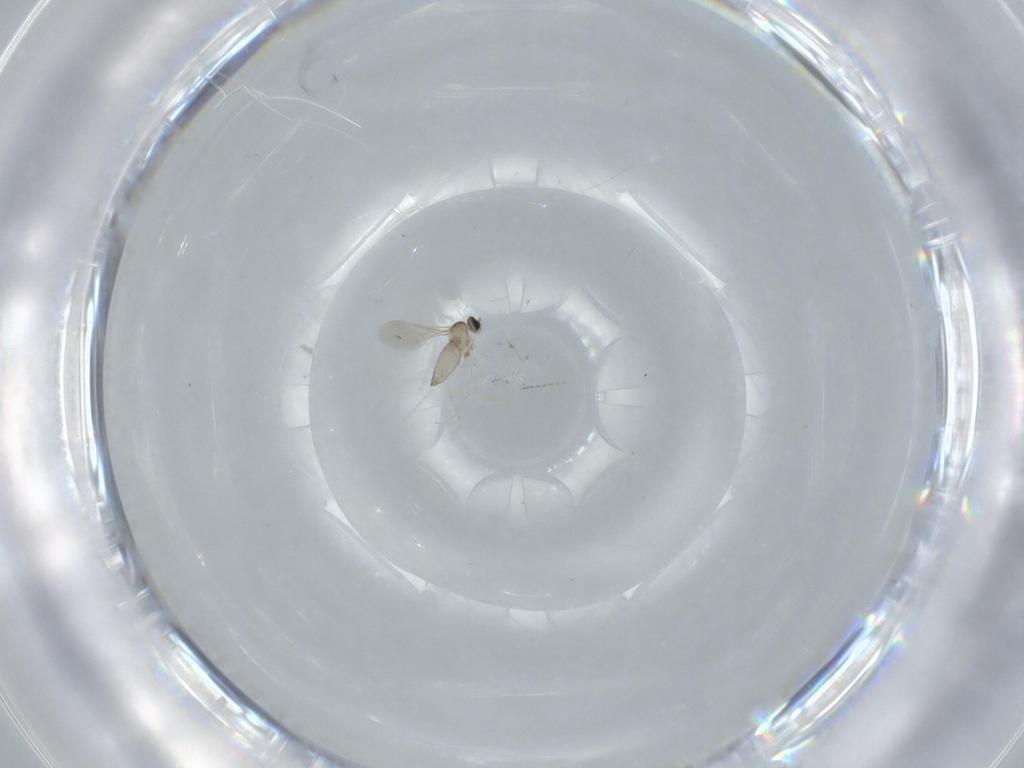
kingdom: Animalia
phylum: Arthropoda
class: Insecta
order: Diptera
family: Cecidomyiidae
